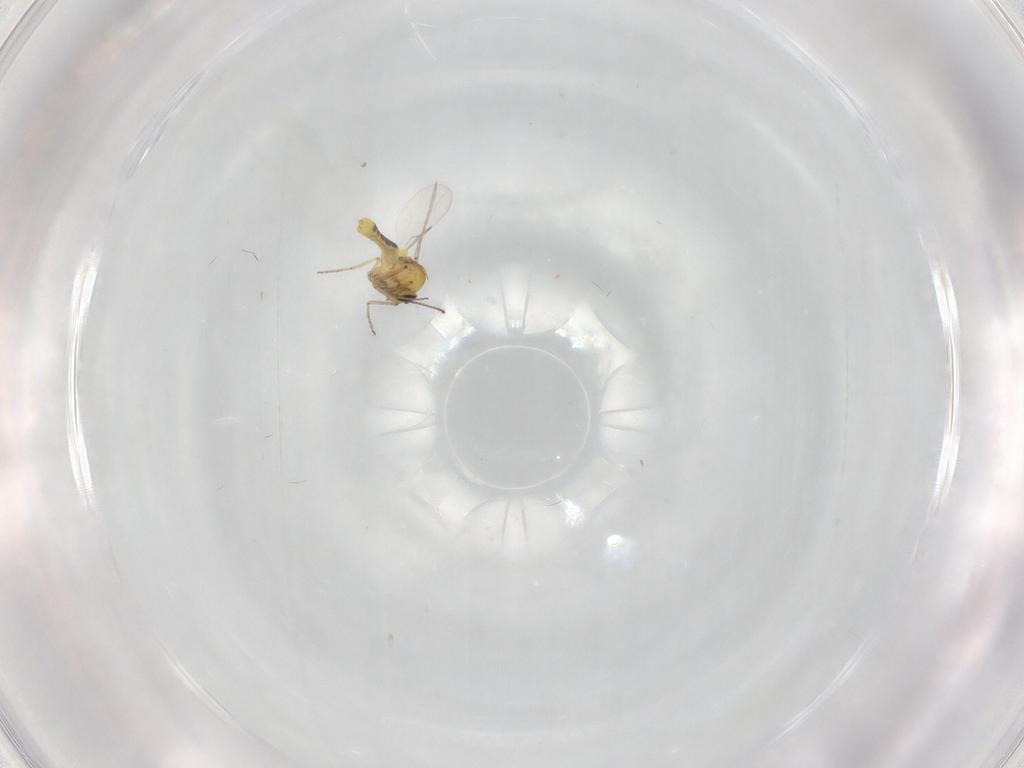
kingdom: Animalia
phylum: Arthropoda
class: Insecta
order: Diptera
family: Ceratopogonidae
